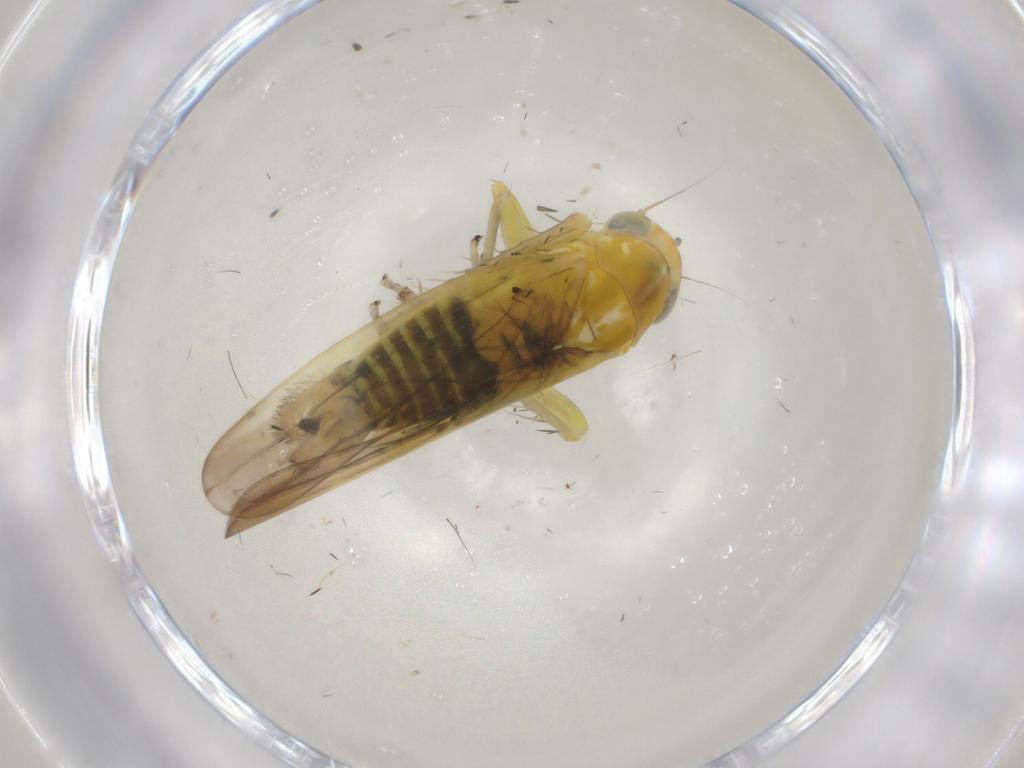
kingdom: Animalia
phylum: Arthropoda
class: Insecta
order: Hemiptera
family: Cicadellidae
